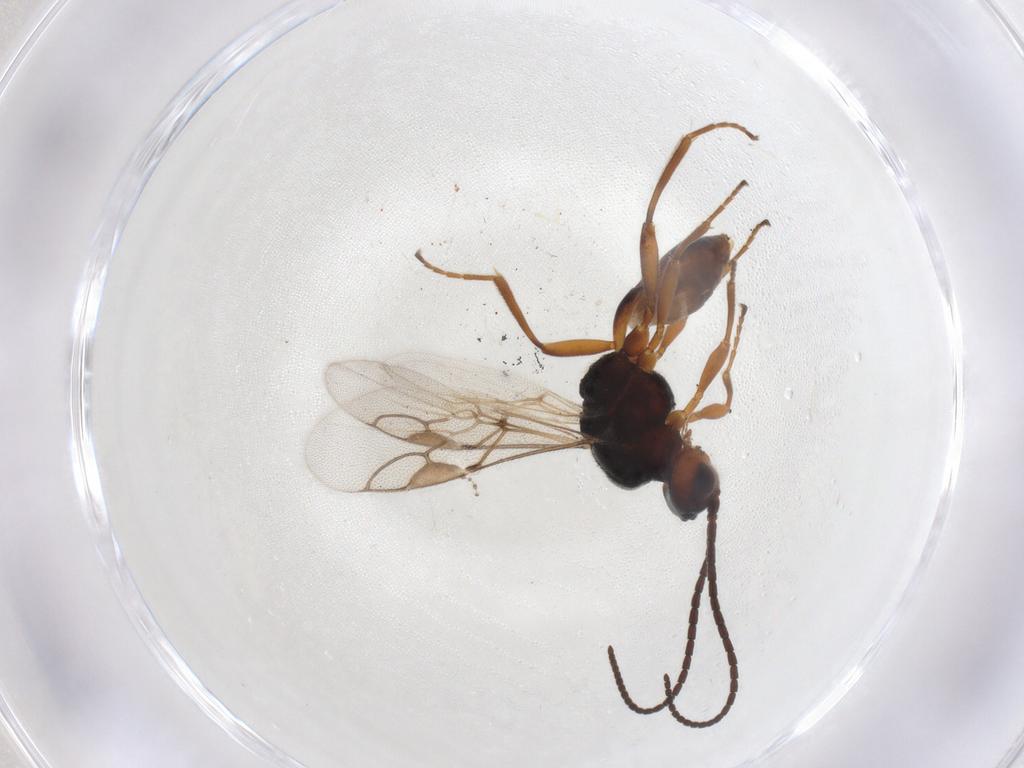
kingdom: Animalia
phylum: Arthropoda
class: Insecta
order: Hymenoptera
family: Braconidae
